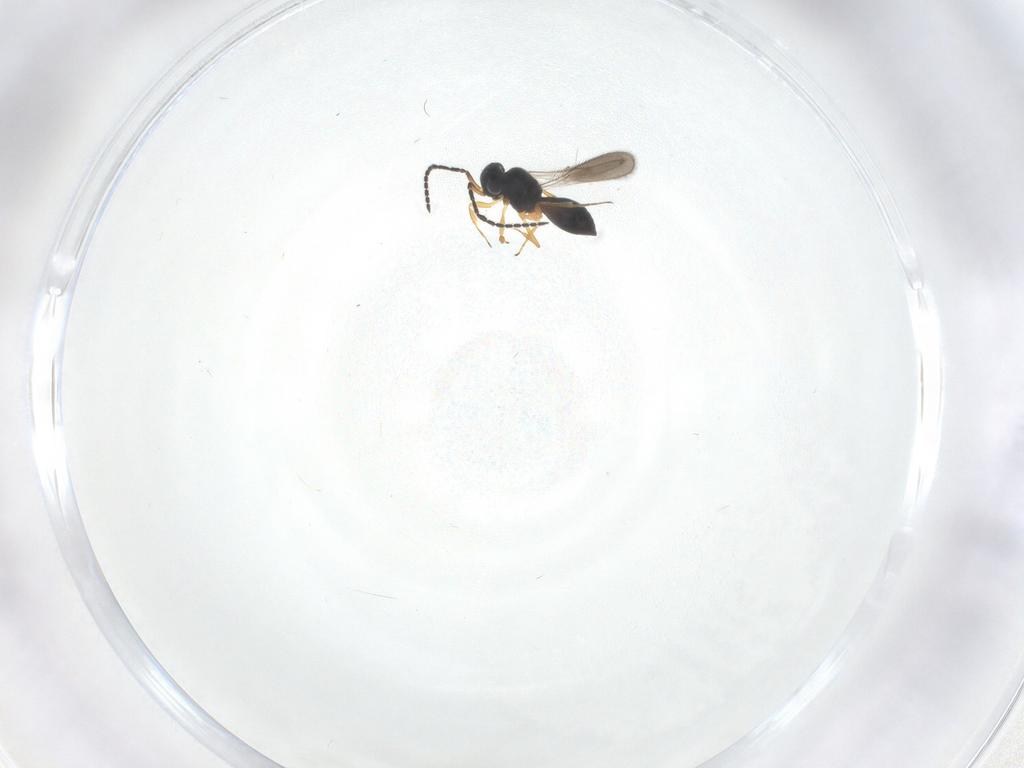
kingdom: Animalia
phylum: Arthropoda
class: Insecta
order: Hymenoptera
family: Scelionidae
